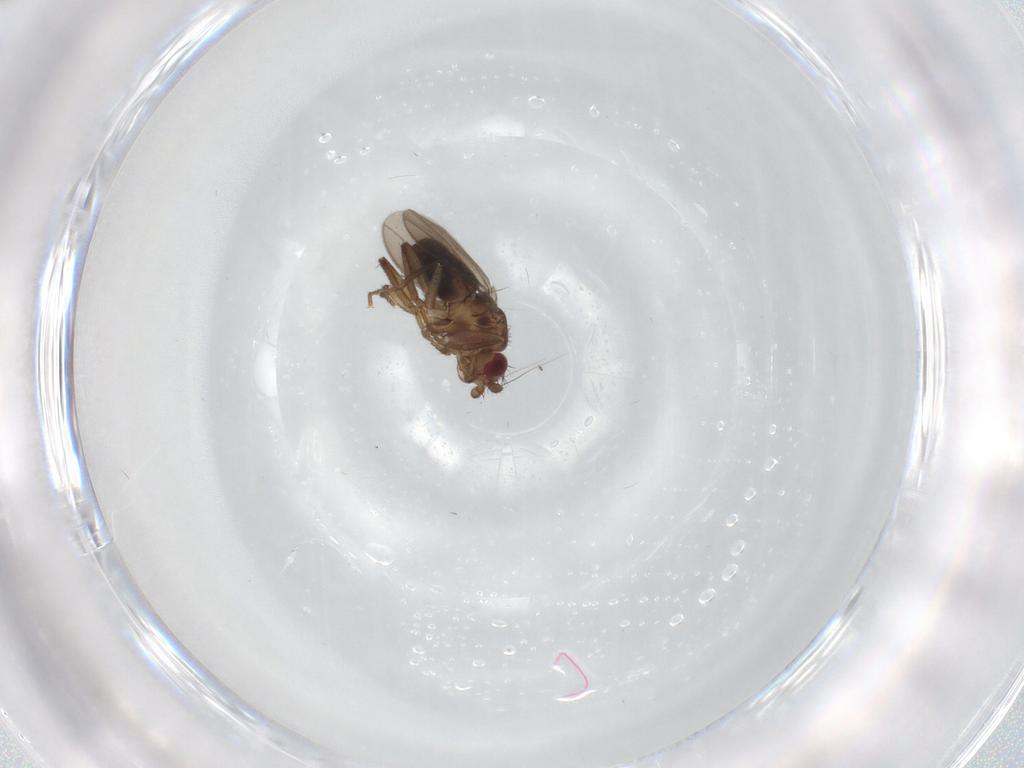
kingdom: Animalia
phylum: Arthropoda
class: Insecta
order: Diptera
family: Sphaeroceridae
